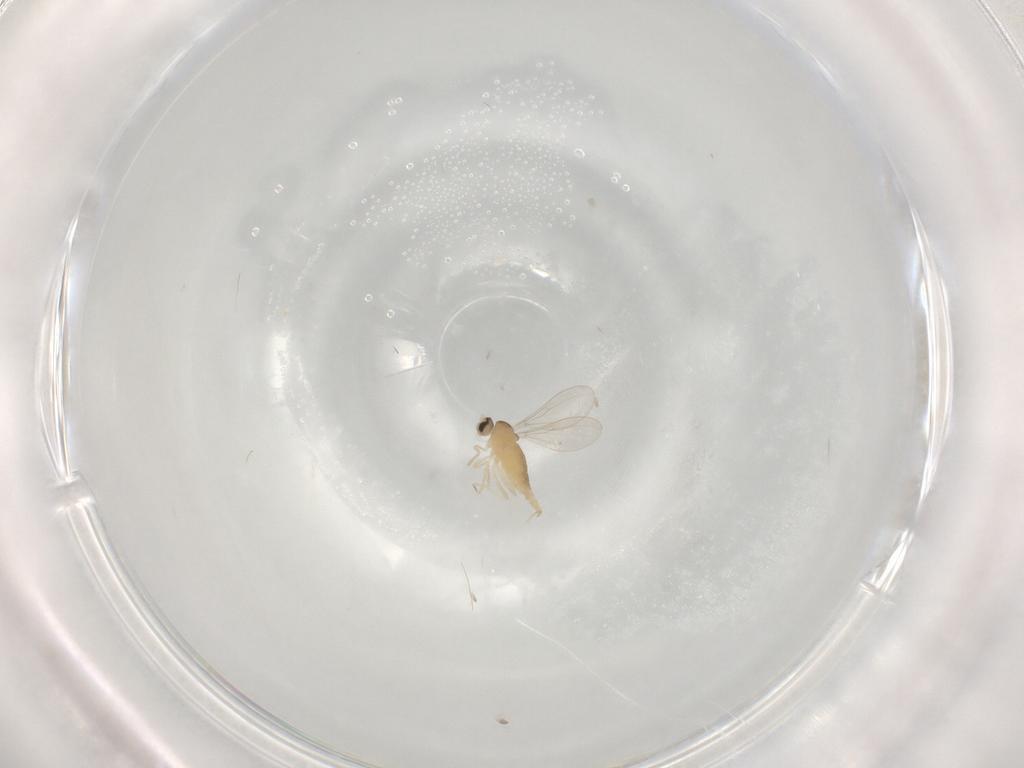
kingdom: Animalia
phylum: Arthropoda
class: Insecta
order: Diptera
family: Cecidomyiidae
